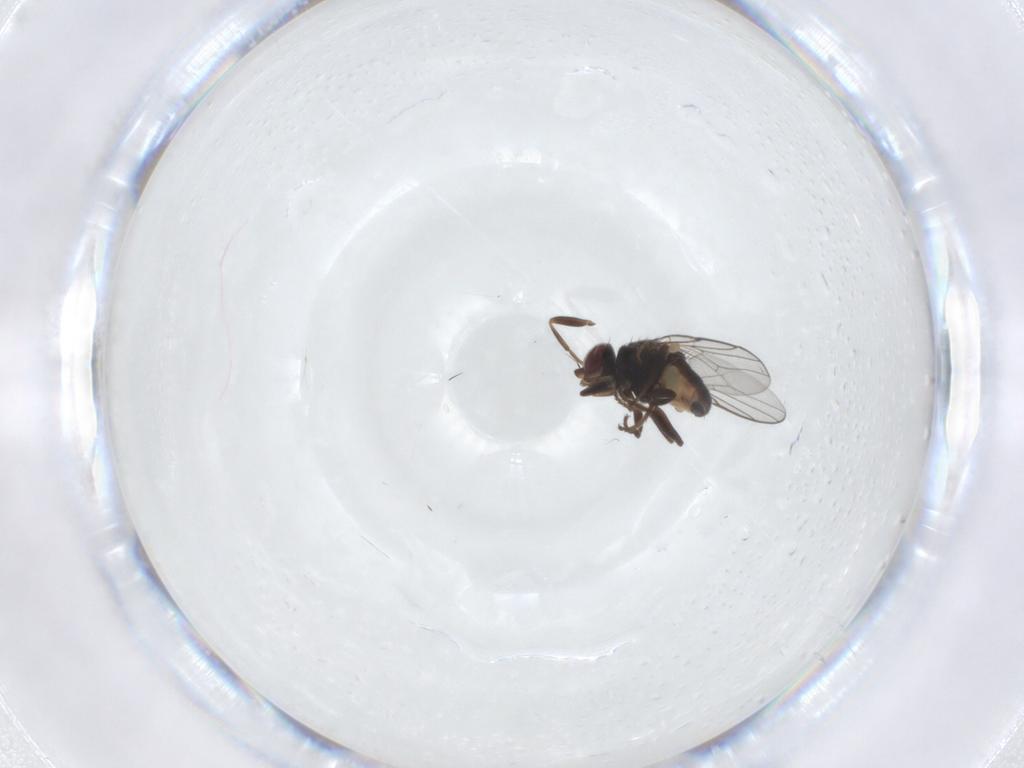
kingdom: Animalia
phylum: Arthropoda
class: Insecta
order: Diptera
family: Chloropidae
